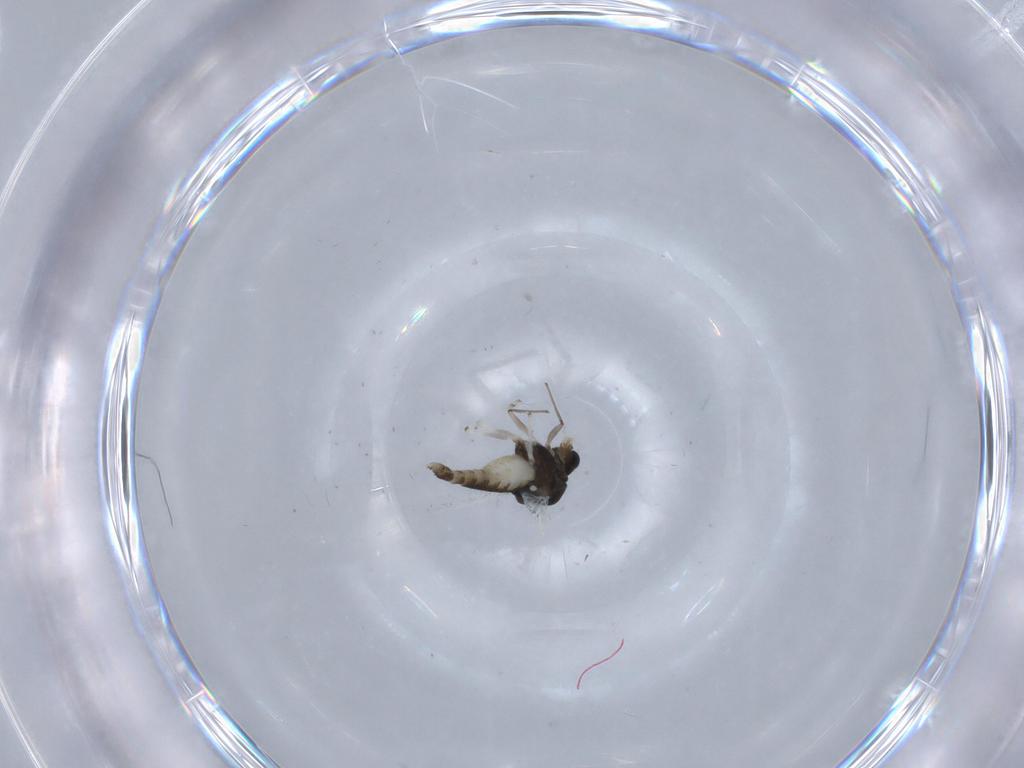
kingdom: Animalia
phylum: Arthropoda
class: Insecta
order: Diptera
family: Chironomidae
